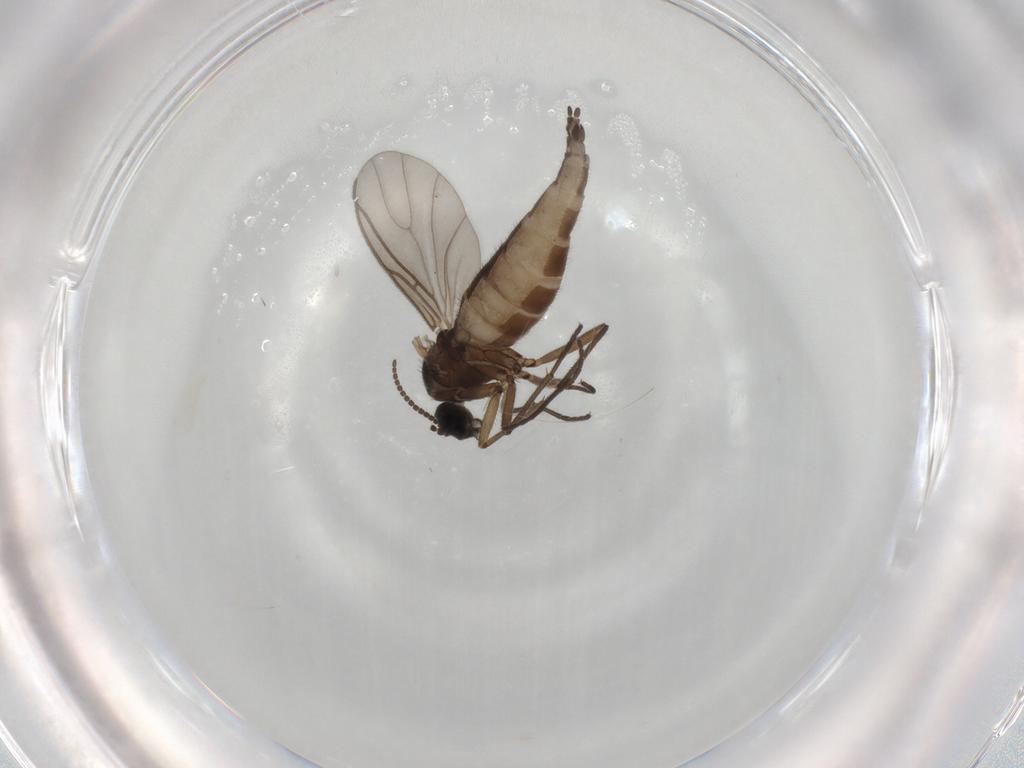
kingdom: Animalia
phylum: Arthropoda
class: Insecta
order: Diptera
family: Sciaridae
